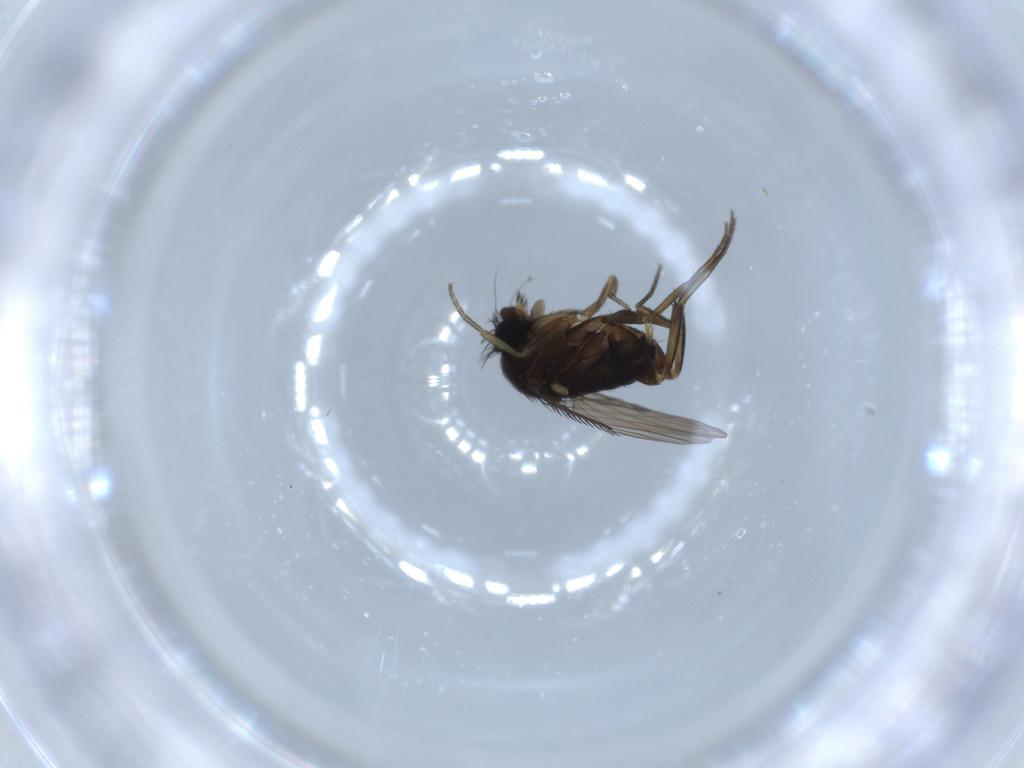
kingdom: Animalia
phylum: Arthropoda
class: Insecta
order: Diptera
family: Phoridae
